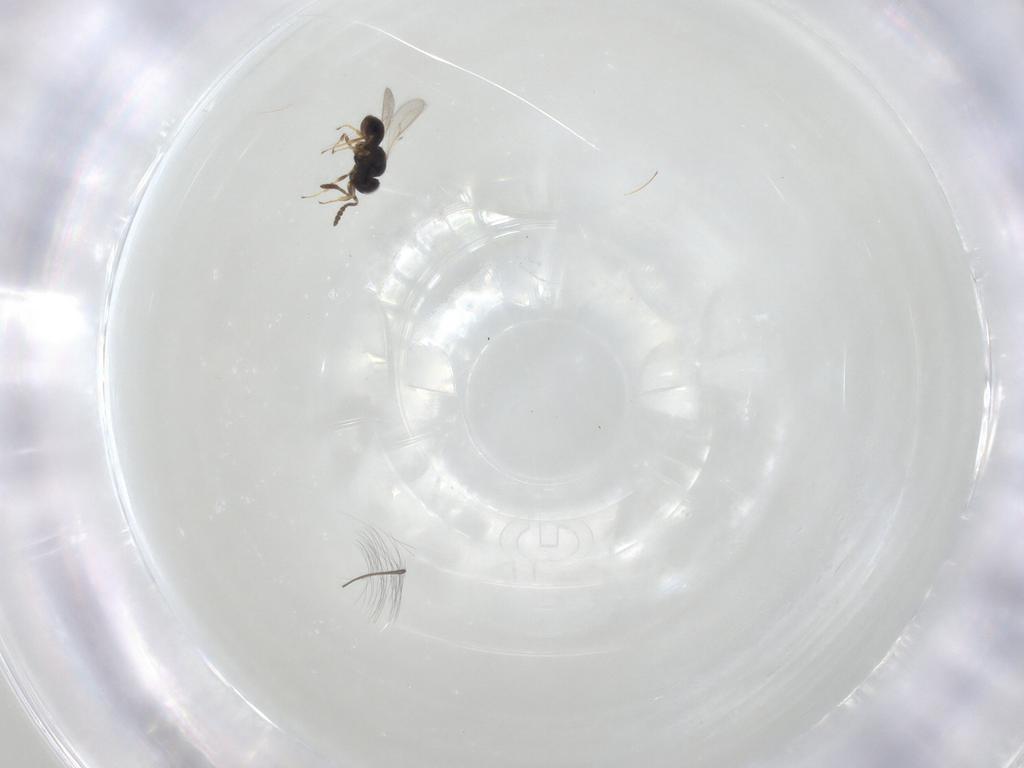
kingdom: Animalia
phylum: Arthropoda
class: Insecta
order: Hymenoptera
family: Scelionidae
